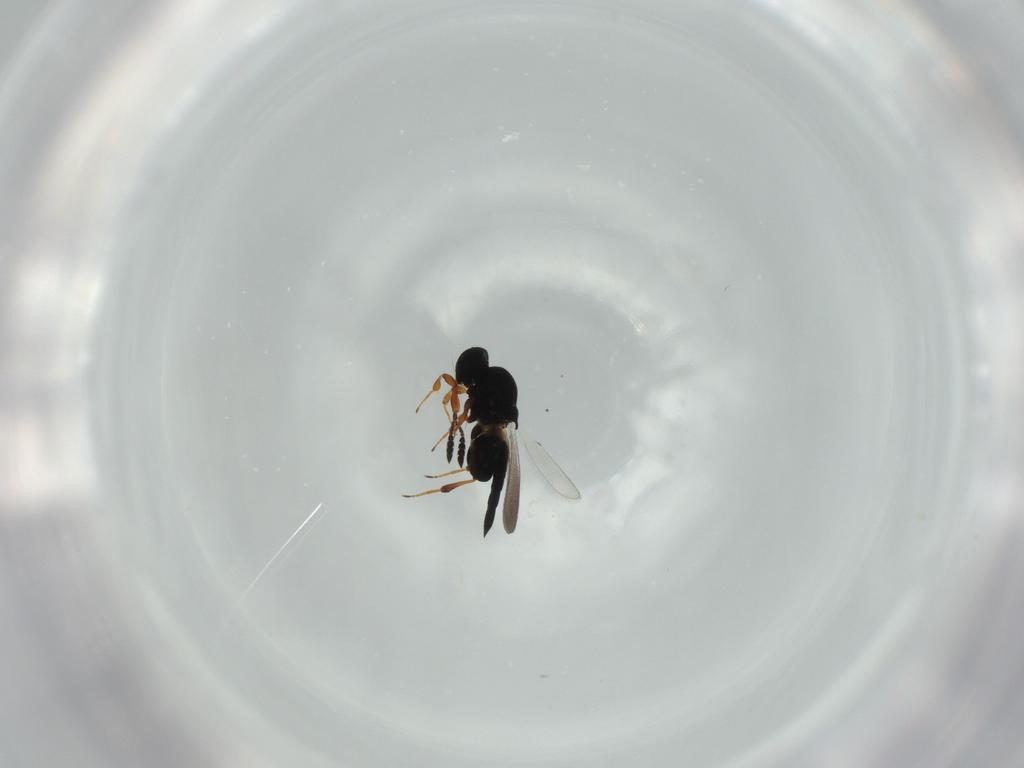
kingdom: Animalia
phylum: Arthropoda
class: Insecta
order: Hymenoptera
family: Platygastridae
